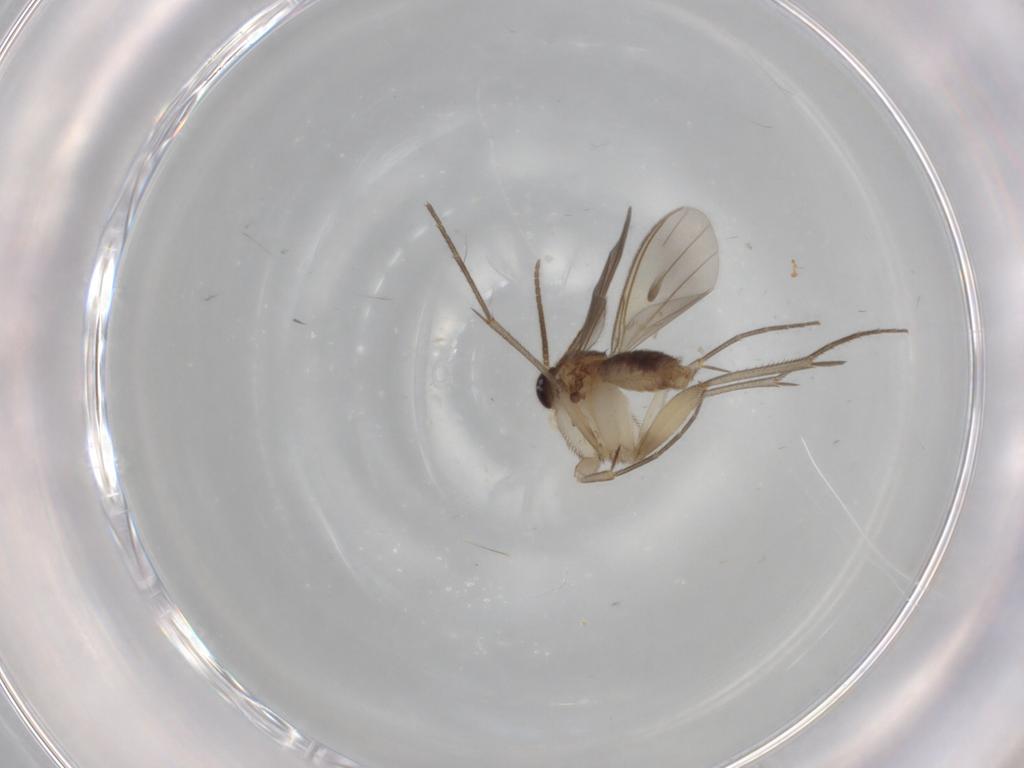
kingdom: Animalia
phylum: Arthropoda
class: Insecta
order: Diptera
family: Mycetophilidae
